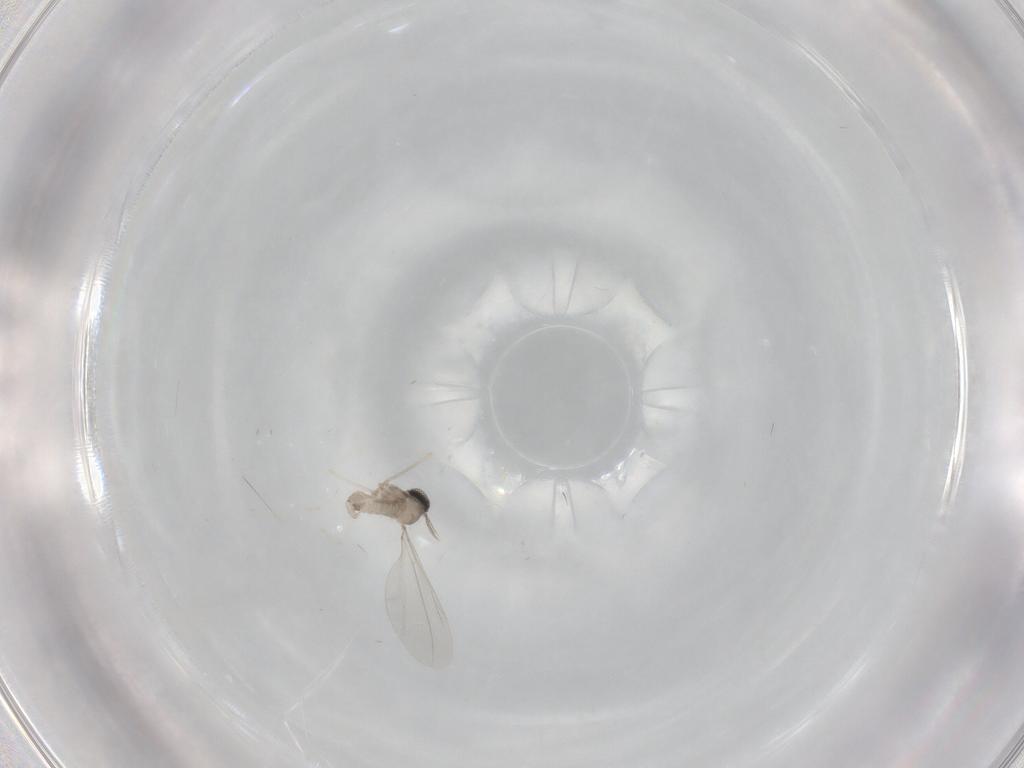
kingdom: Animalia
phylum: Arthropoda
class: Insecta
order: Diptera
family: Cecidomyiidae
